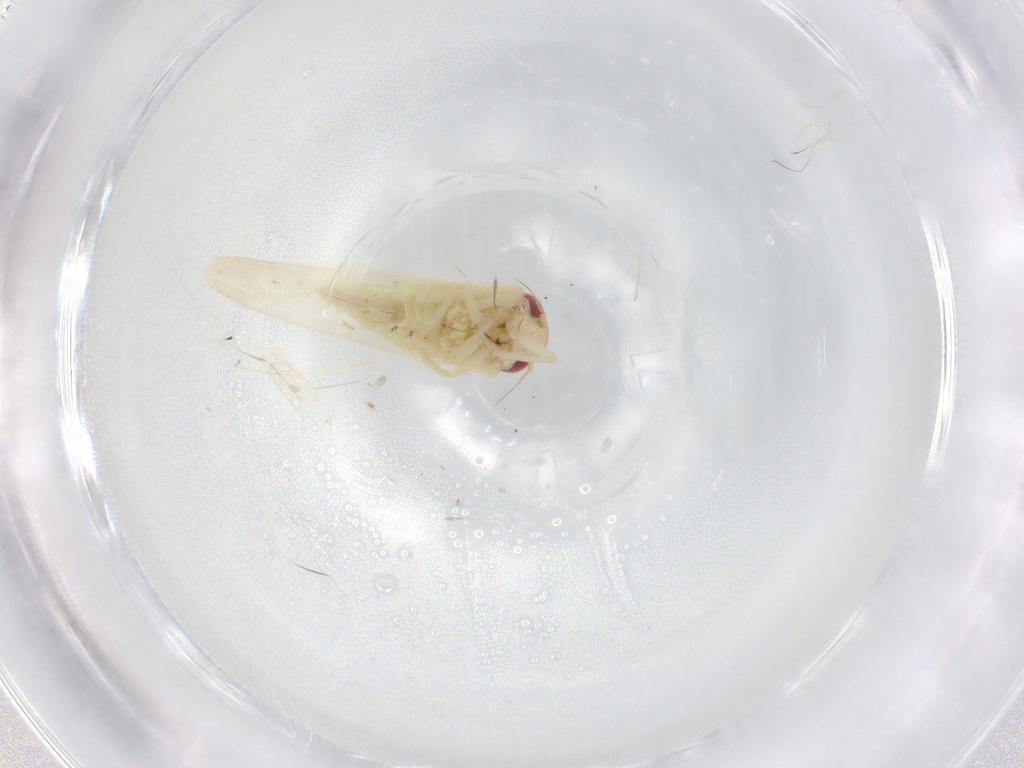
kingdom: Animalia
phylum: Arthropoda
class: Insecta
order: Hemiptera
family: Cicadellidae
